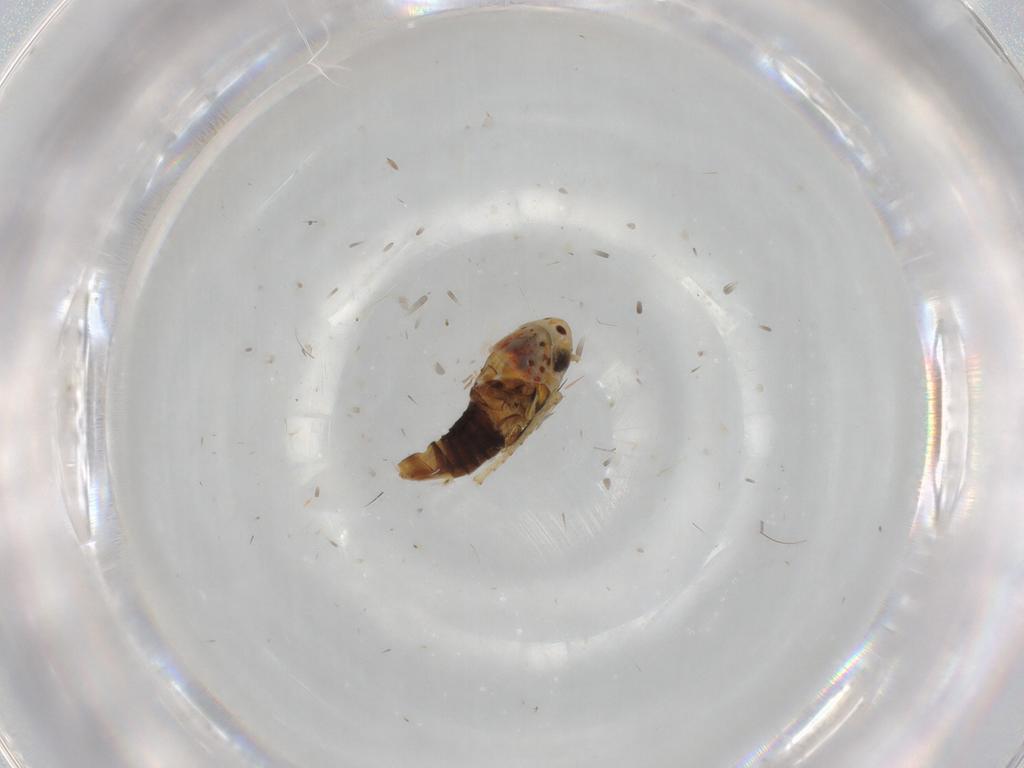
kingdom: Animalia
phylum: Arthropoda
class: Insecta
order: Hemiptera
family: Cicadellidae
